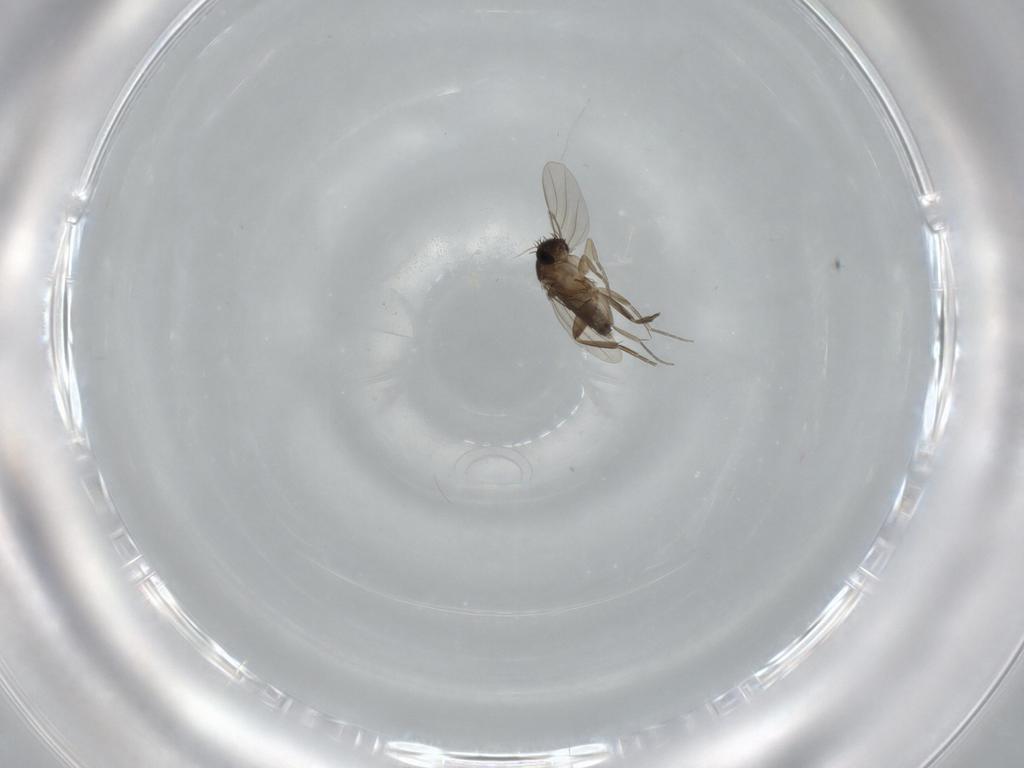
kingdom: Animalia
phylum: Arthropoda
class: Insecta
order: Diptera
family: Phoridae
